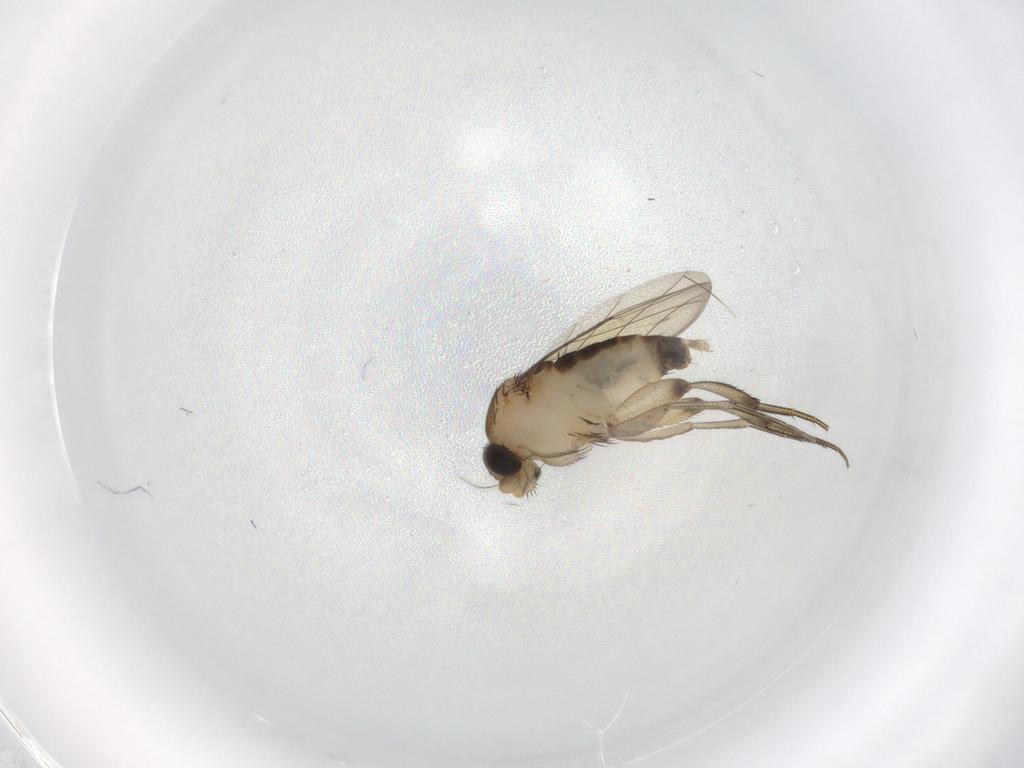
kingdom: Animalia
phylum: Arthropoda
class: Insecta
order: Diptera
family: Sciaridae
